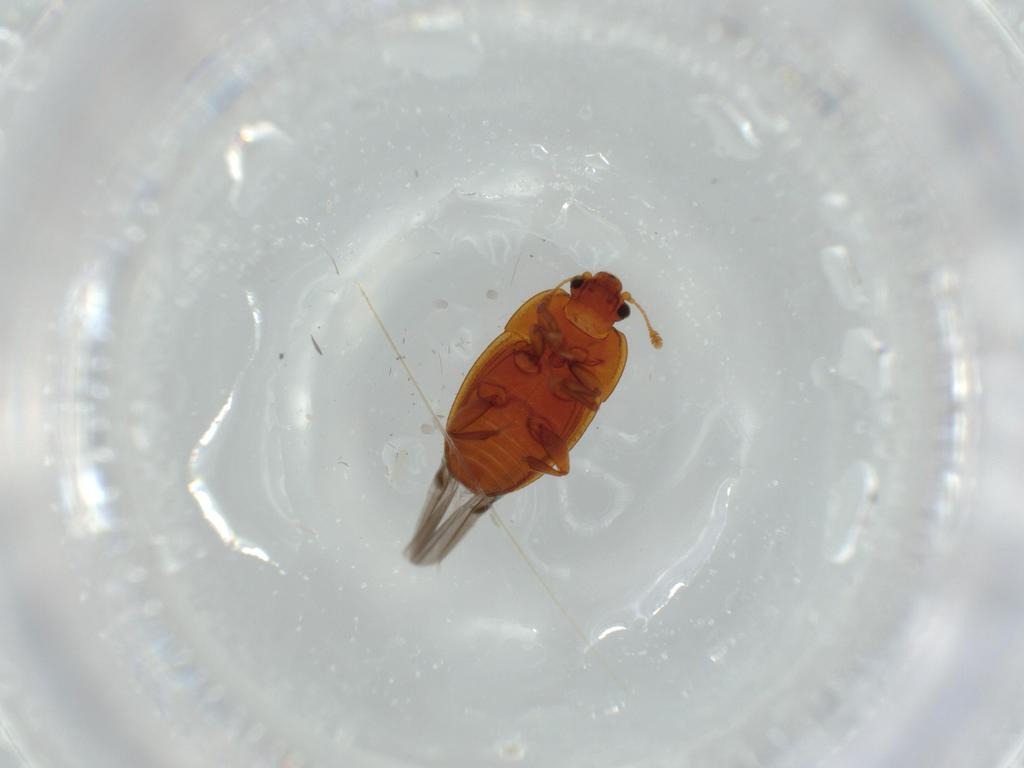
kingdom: Animalia
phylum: Arthropoda
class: Insecta
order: Coleoptera
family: Nitidulidae
